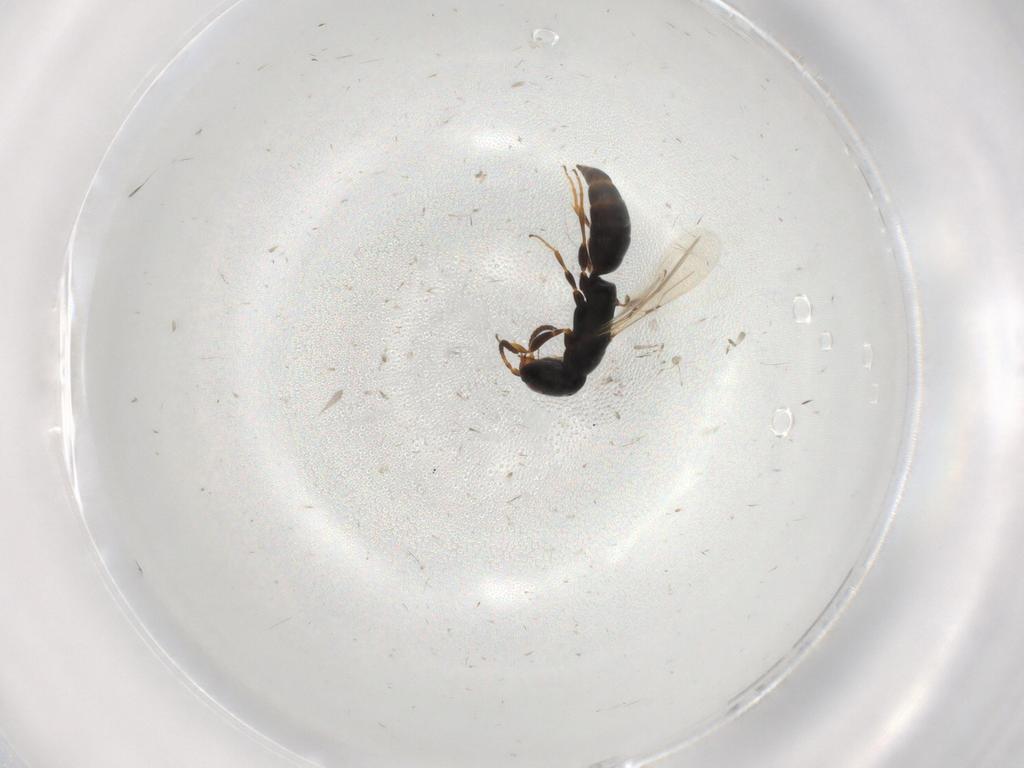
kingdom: Animalia
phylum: Arthropoda
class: Insecta
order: Hymenoptera
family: Bethylidae
